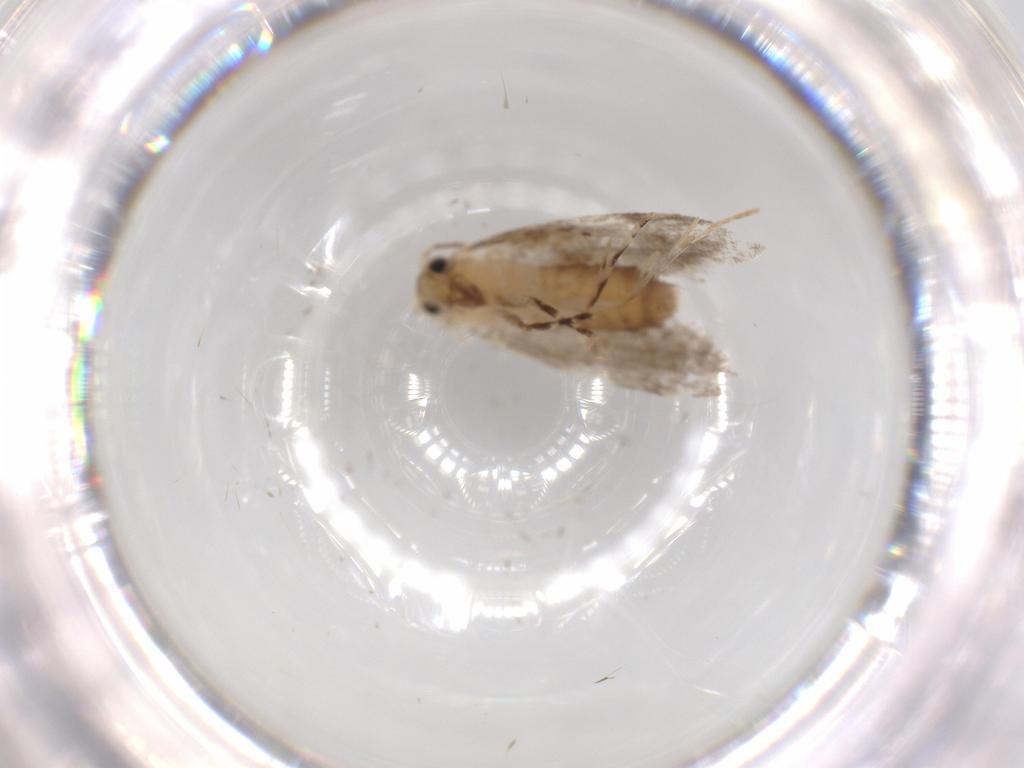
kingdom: Animalia
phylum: Arthropoda
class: Insecta
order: Lepidoptera
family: Tineidae
